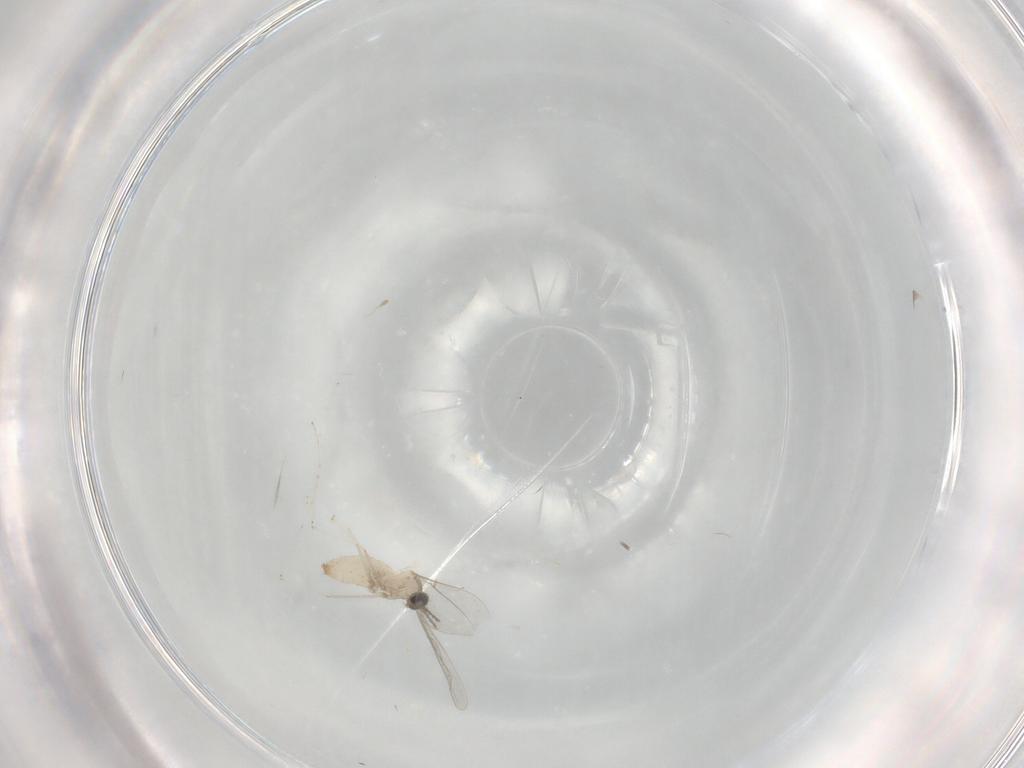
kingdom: Animalia
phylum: Arthropoda
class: Insecta
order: Diptera
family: Cecidomyiidae
